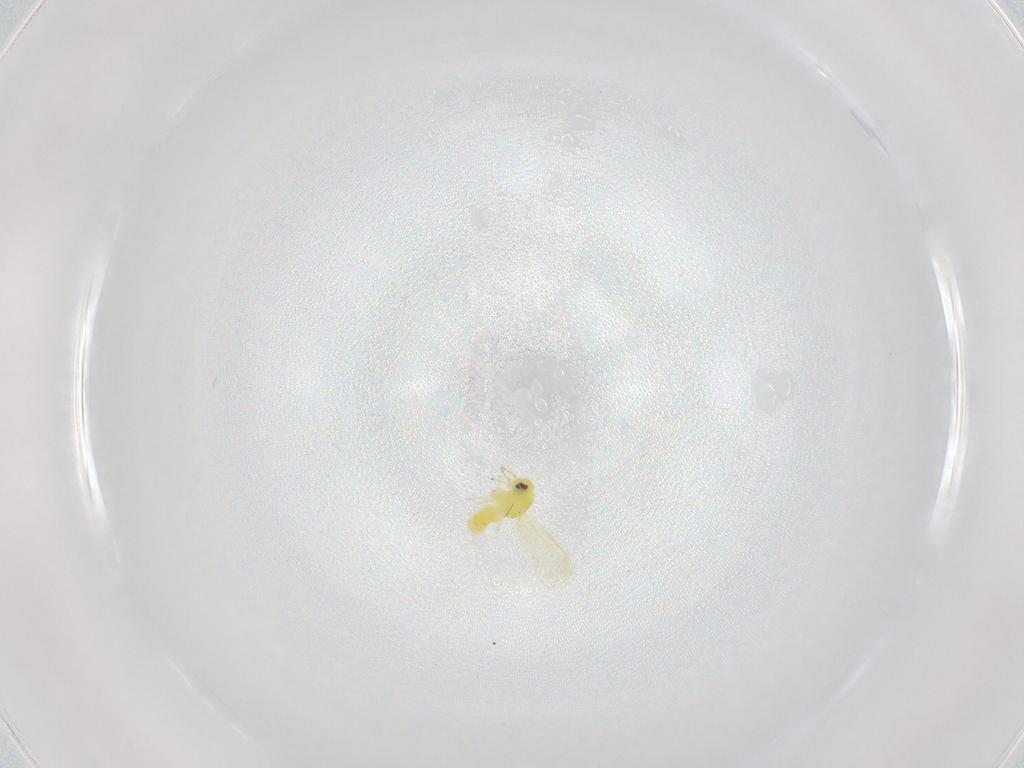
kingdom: Animalia
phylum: Arthropoda
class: Insecta
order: Hemiptera
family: Aleyrodidae
